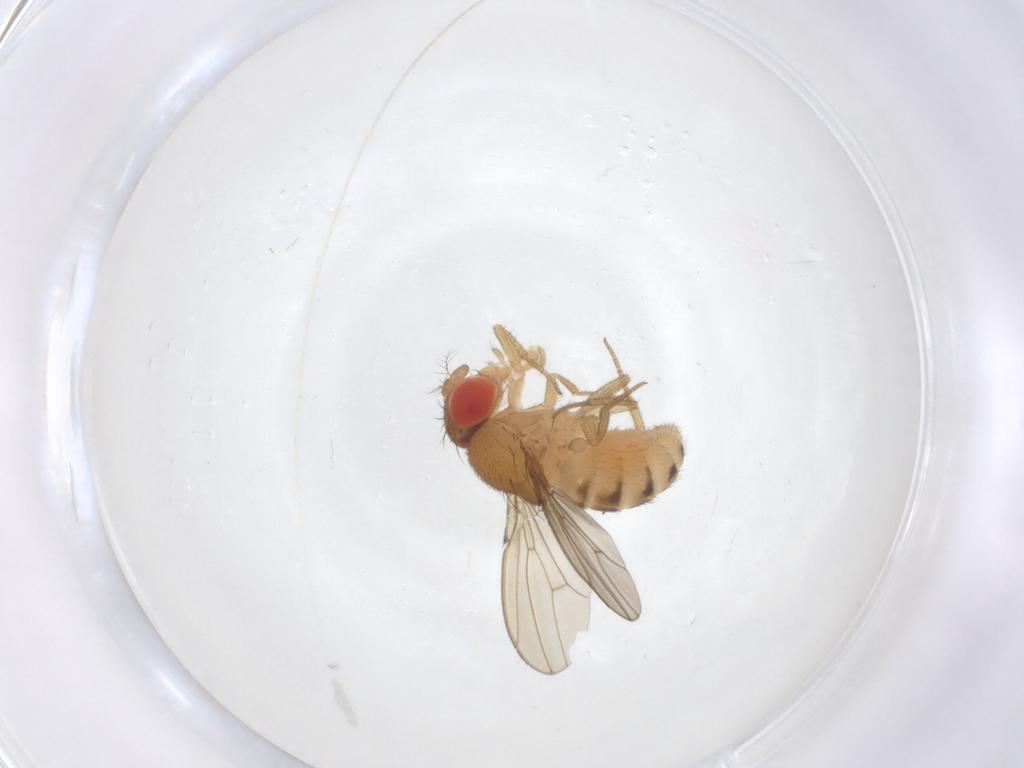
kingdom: Animalia
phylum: Arthropoda
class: Insecta
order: Diptera
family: Drosophilidae
